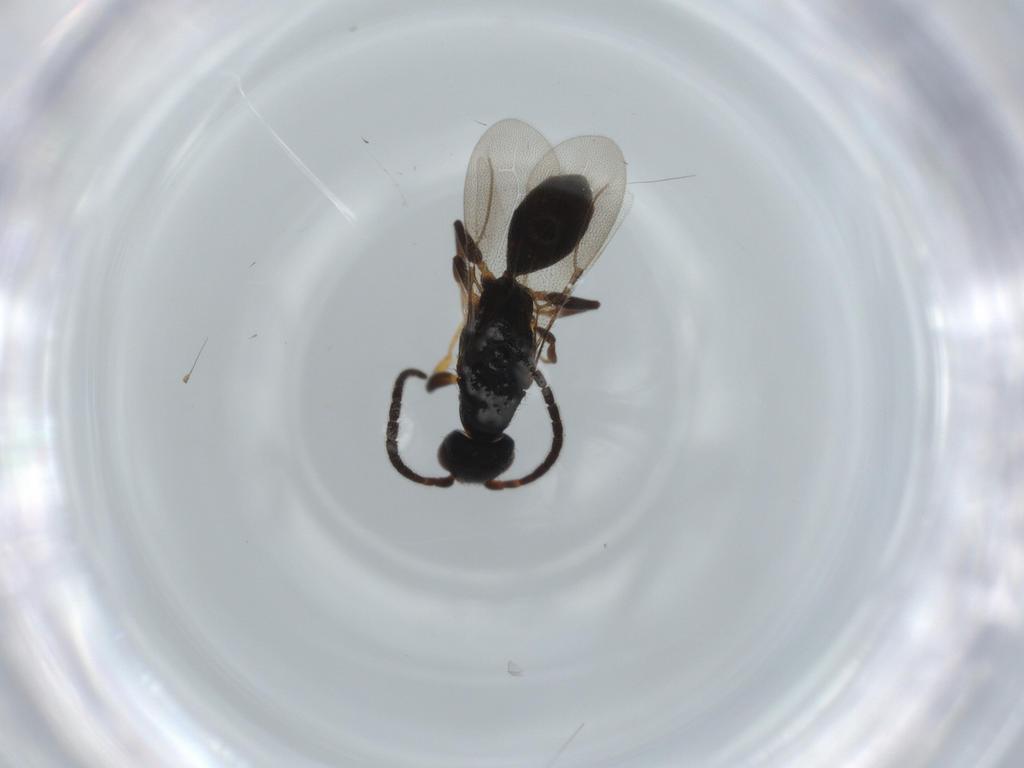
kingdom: Animalia
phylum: Arthropoda
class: Insecta
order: Hymenoptera
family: Bethylidae
